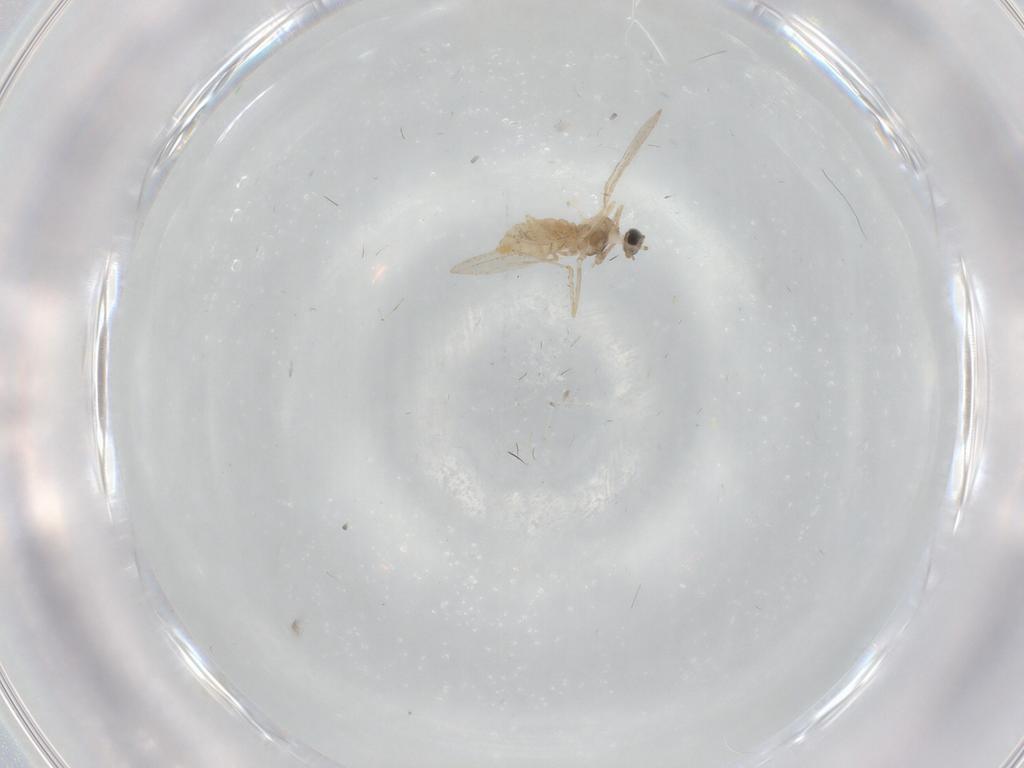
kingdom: Animalia
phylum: Arthropoda
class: Insecta
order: Diptera
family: Cecidomyiidae
